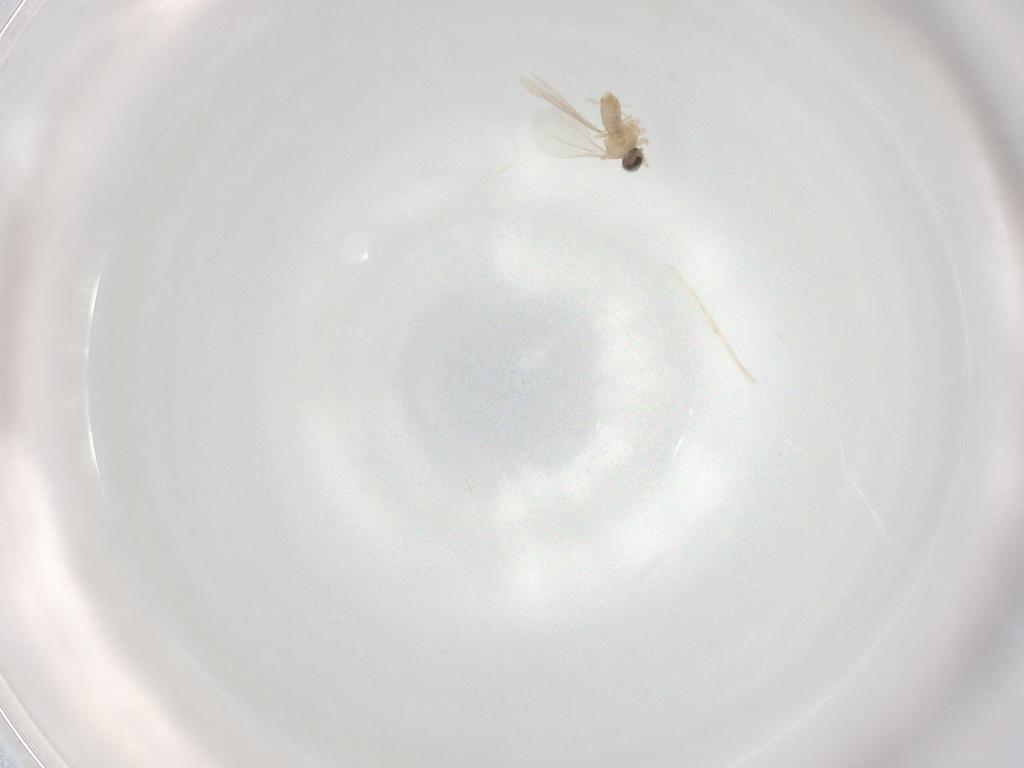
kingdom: Animalia
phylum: Arthropoda
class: Insecta
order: Diptera
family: Cecidomyiidae
